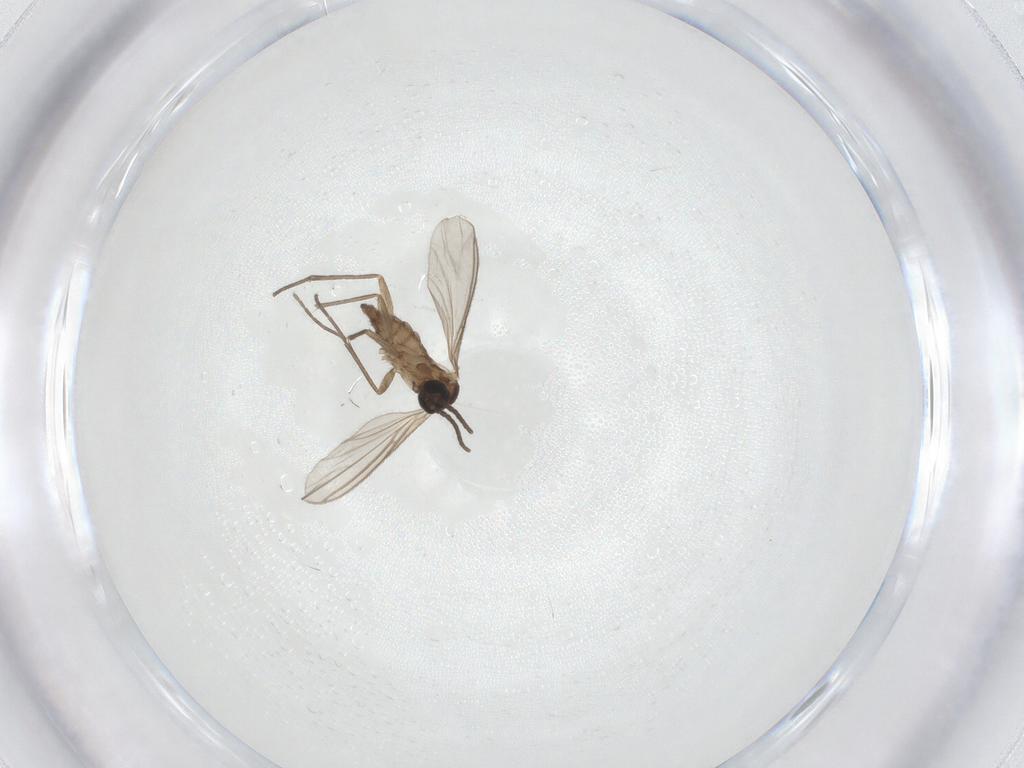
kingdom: Animalia
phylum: Arthropoda
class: Insecta
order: Diptera
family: Sciaridae
